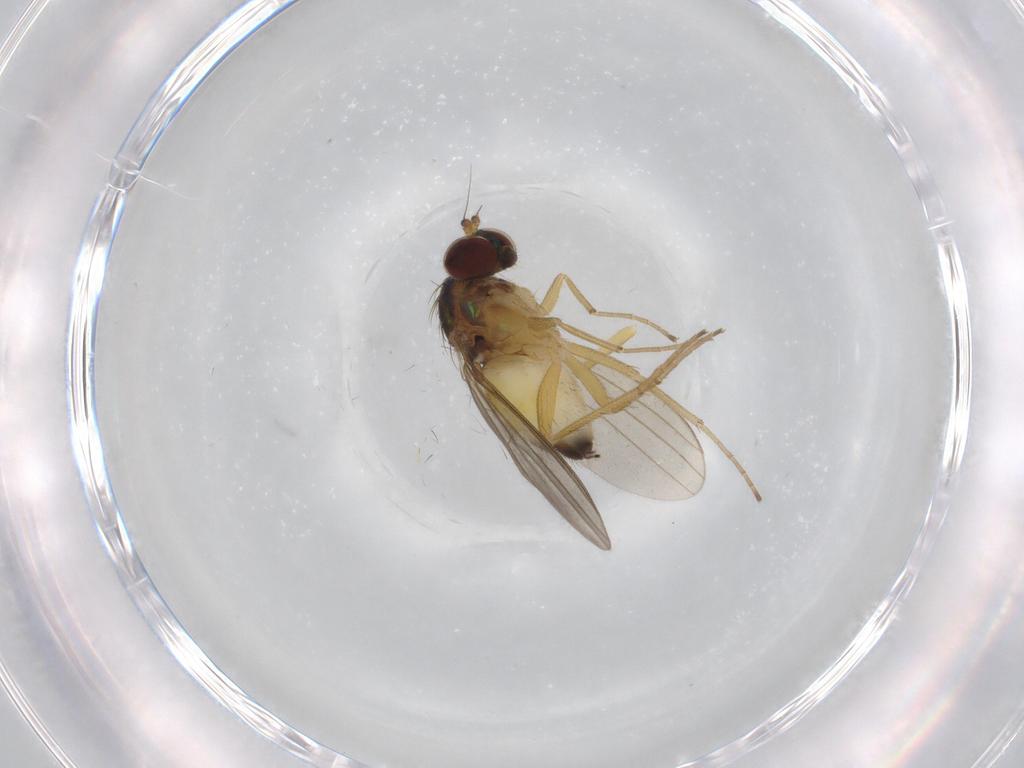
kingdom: Animalia
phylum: Arthropoda
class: Insecta
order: Diptera
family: Dolichopodidae
